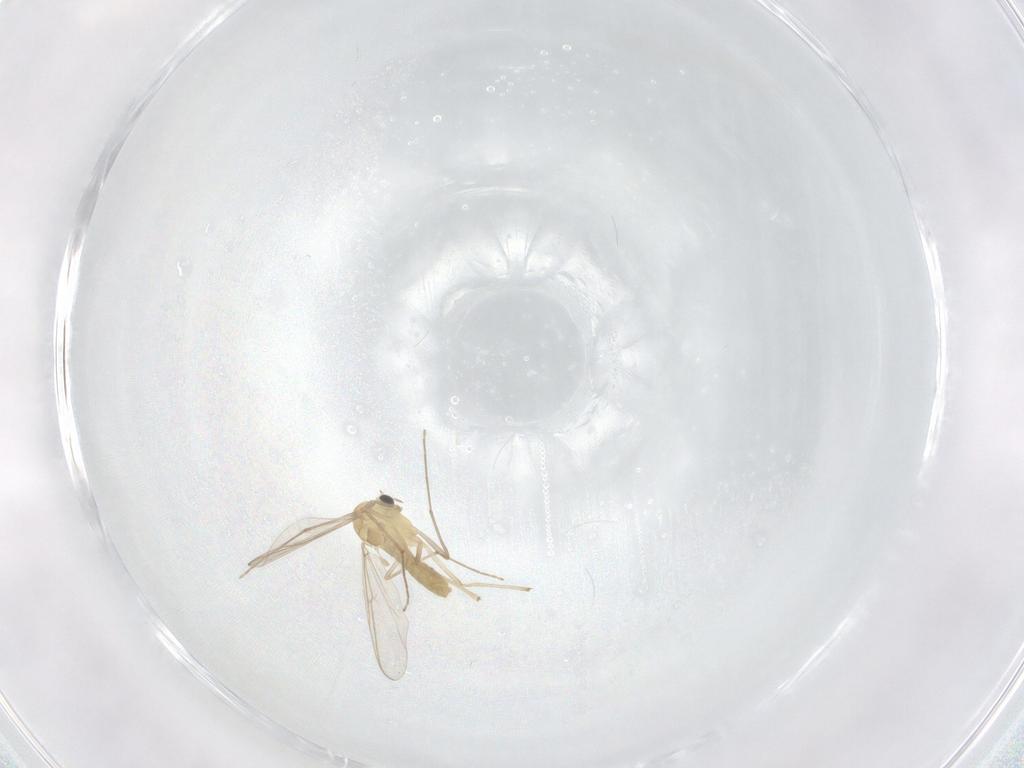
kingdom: Animalia
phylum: Arthropoda
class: Insecta
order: Diptera
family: Chironomidae
